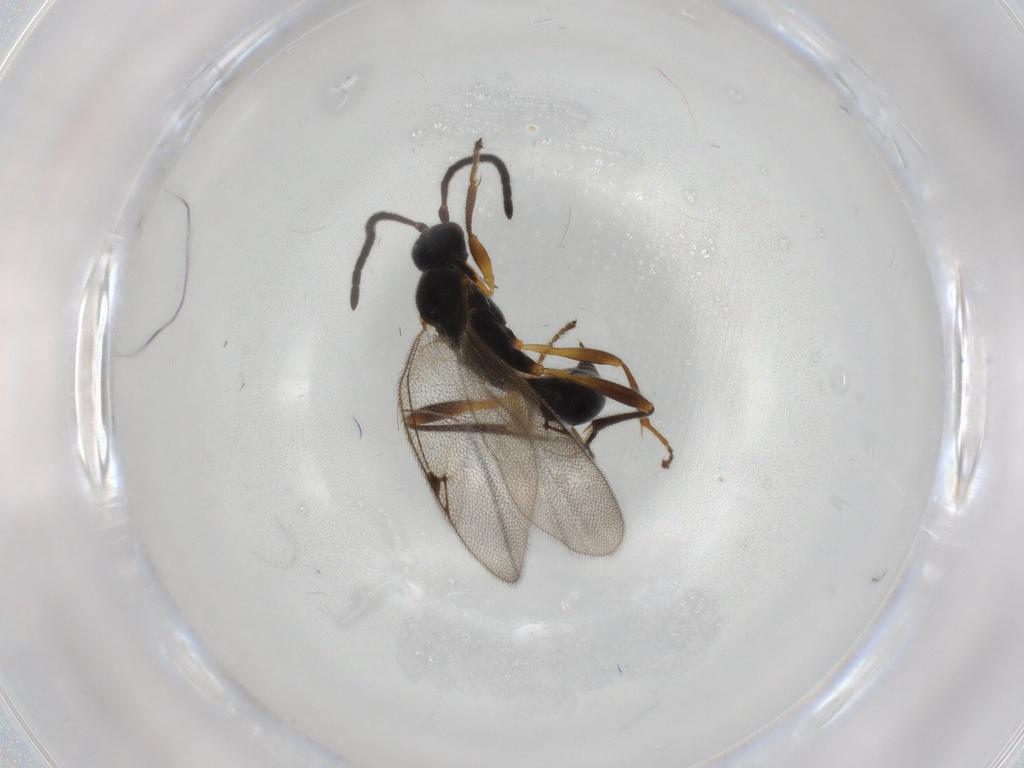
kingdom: Animalia
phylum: Arthropoda
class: Insecta
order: Hymenoptera
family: Proctotrupidae
